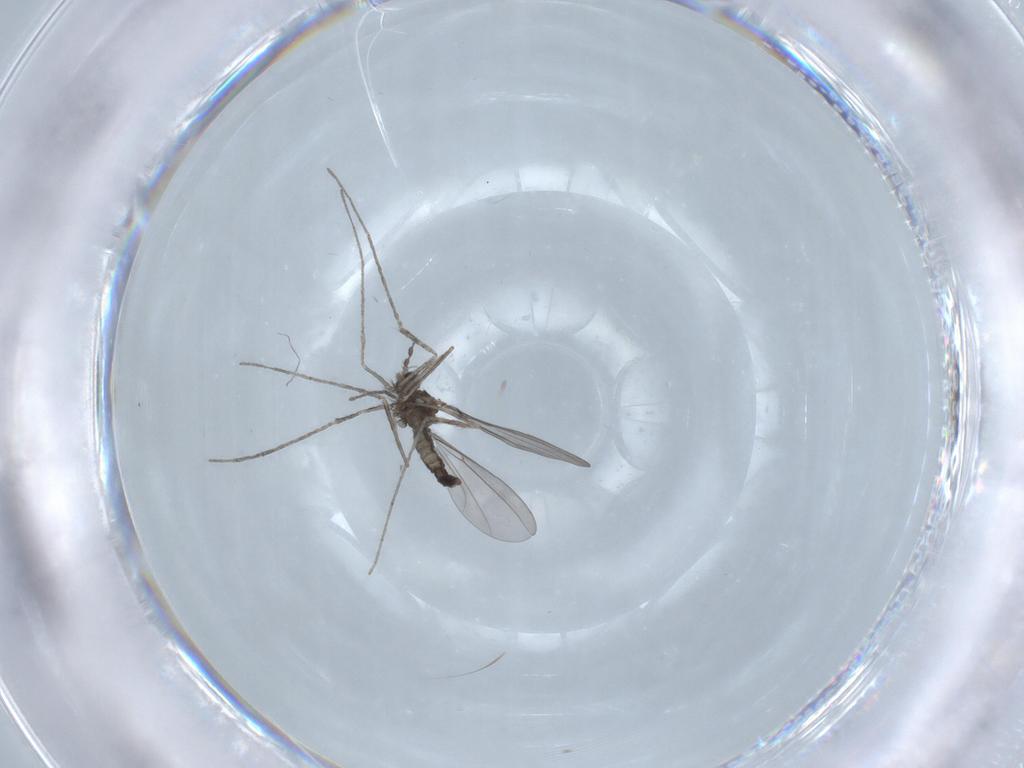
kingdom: Animalia
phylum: Arthropoda
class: Insecta
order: Diptera
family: Cecidomyiidae
